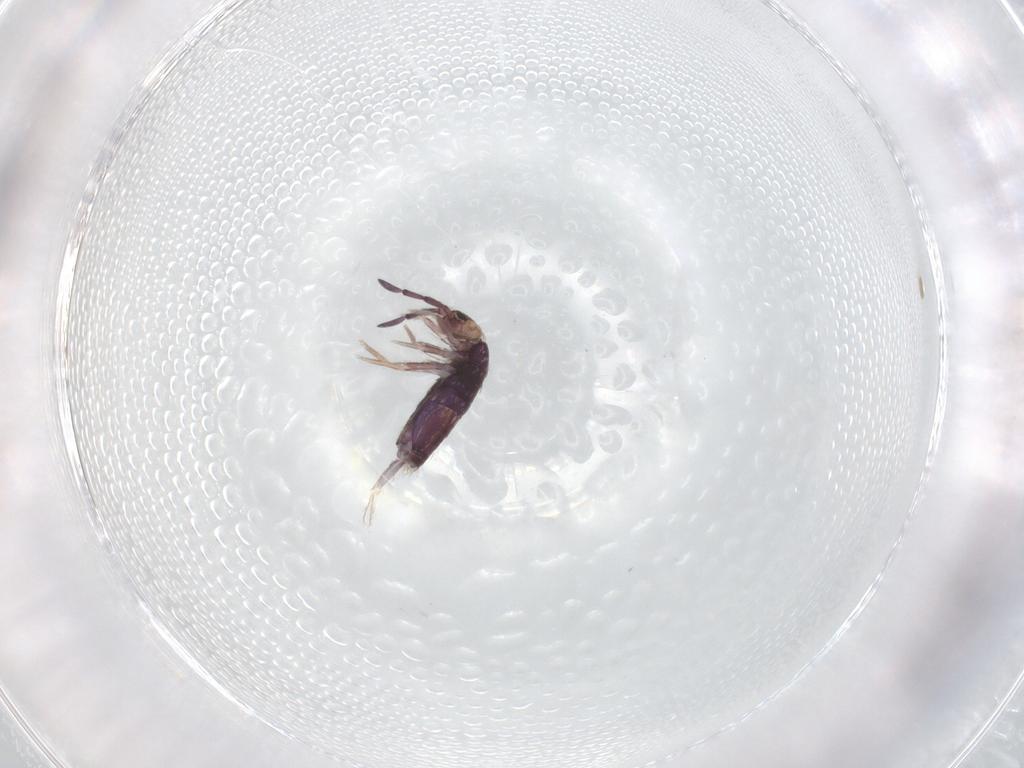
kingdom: Animalia
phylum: Arthropoda
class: Collembola
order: Entomobryomorpha
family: Entomobryidae
